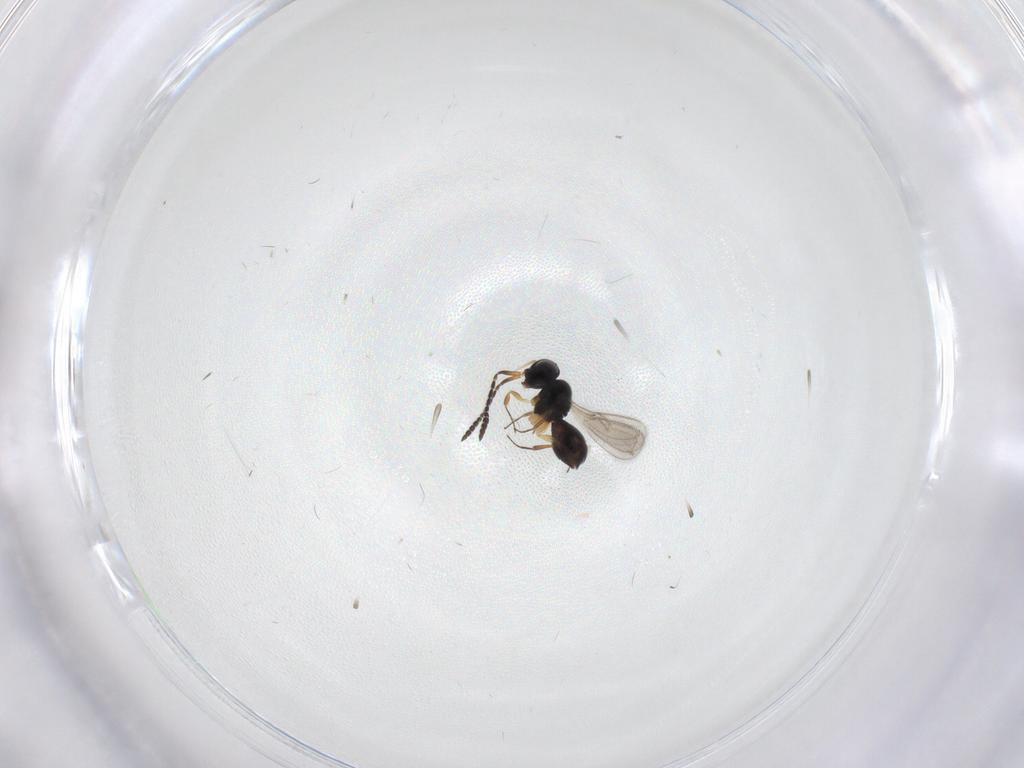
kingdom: Animalia
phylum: Arthropoda
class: Insecta
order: Hymenoptera
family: Scelionidae
